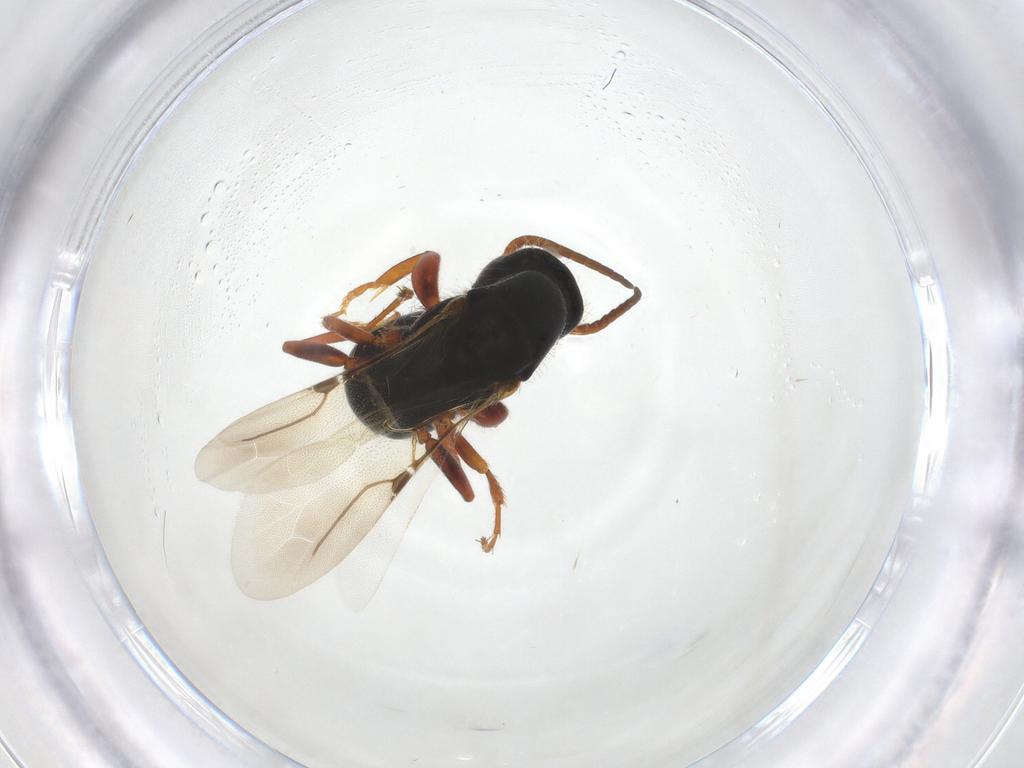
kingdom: Animalia
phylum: Arthropoda
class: Insecta
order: Hymenoptera
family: Bethylidae
